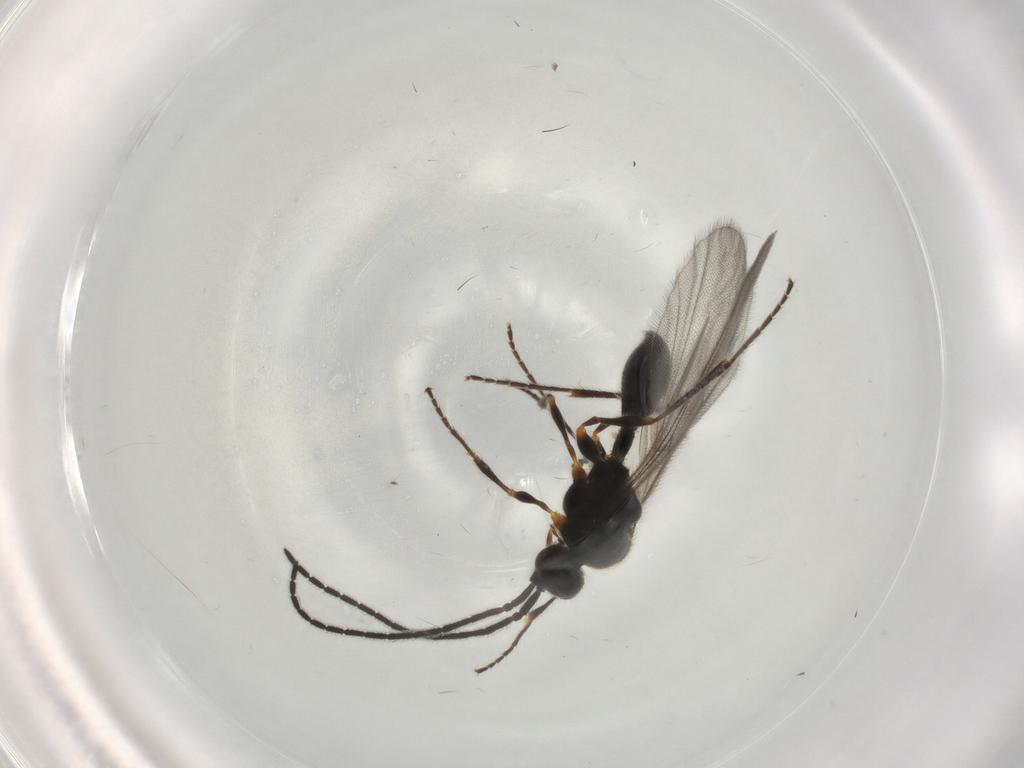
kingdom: Animalia
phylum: Arthropoda
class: Insecta
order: Hymenoptera
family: Diapriidae
